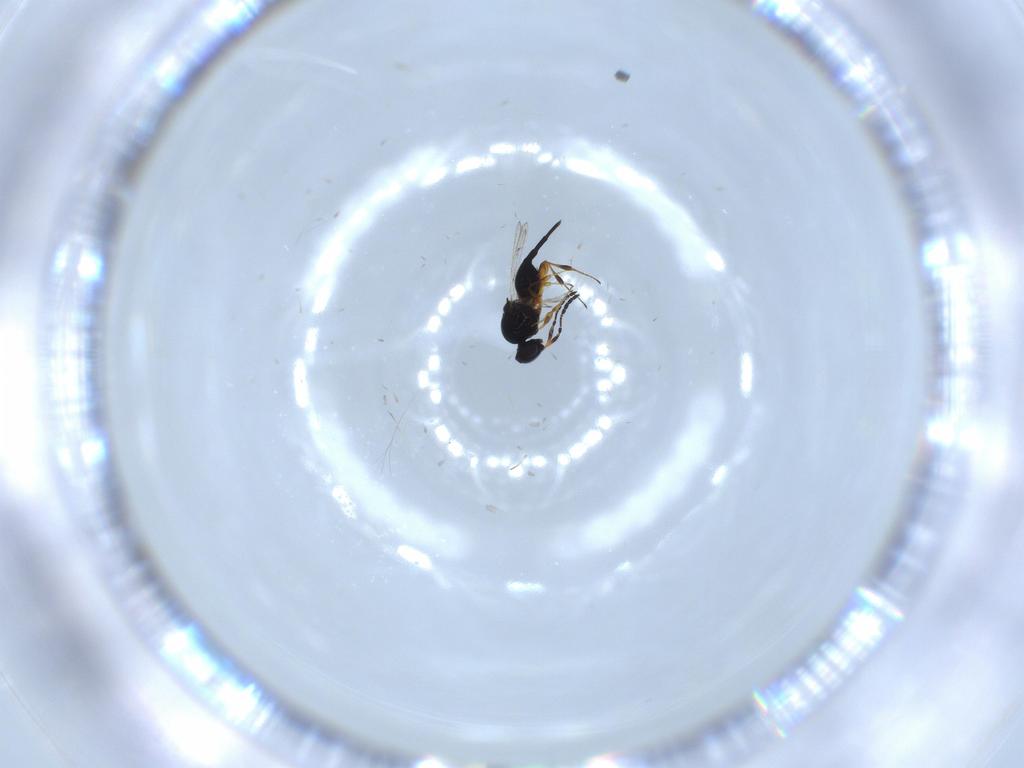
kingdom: Animalia
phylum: Arthropoda
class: Insecta
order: Hymenoptera
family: Platygastridae
